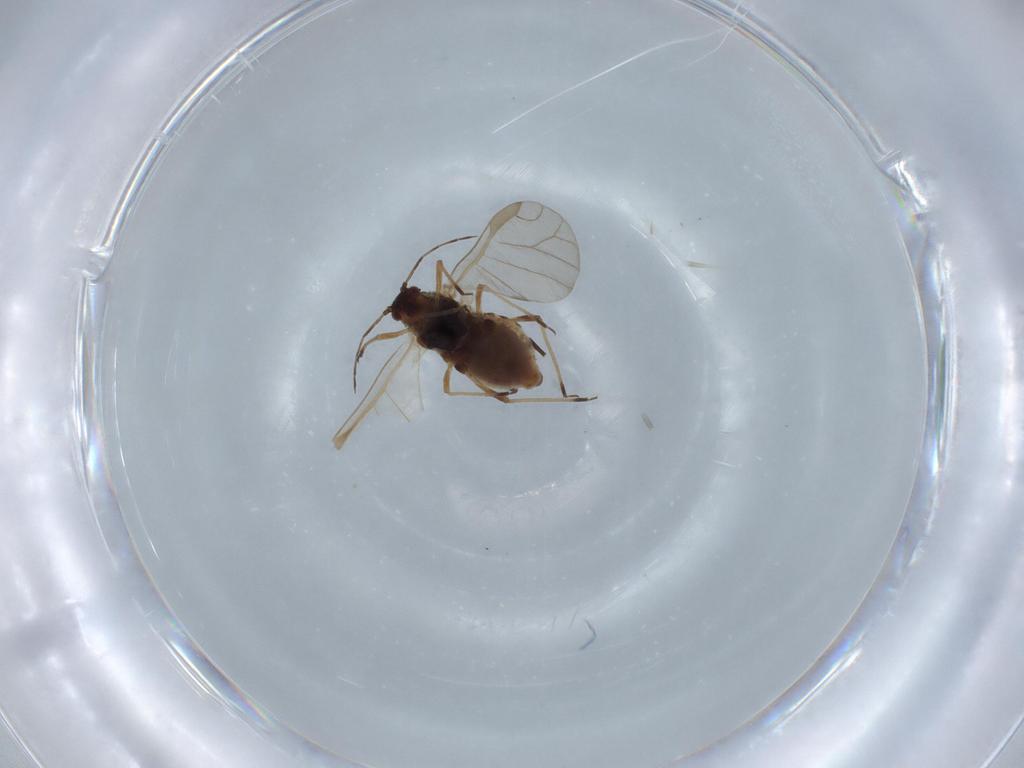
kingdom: Animalia
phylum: Arthropoda
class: Insecta
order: Hemiptera
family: Aphididae
